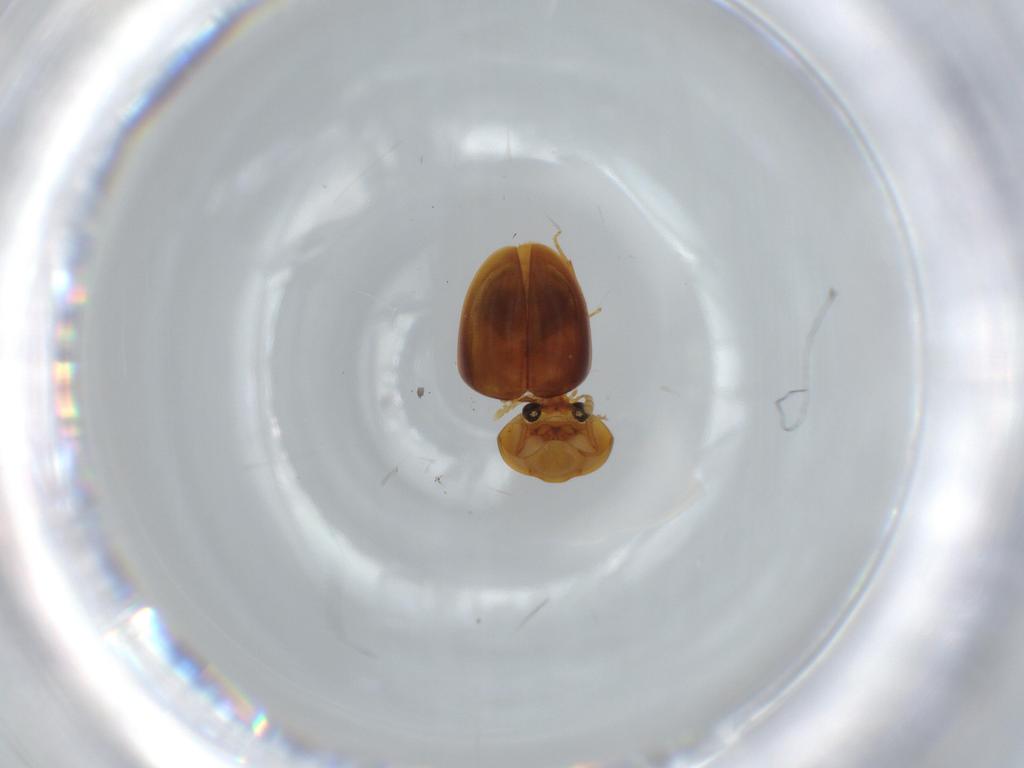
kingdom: Animalia
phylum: Arthropoda
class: Insecta
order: Coleoptera
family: Phalacridae
